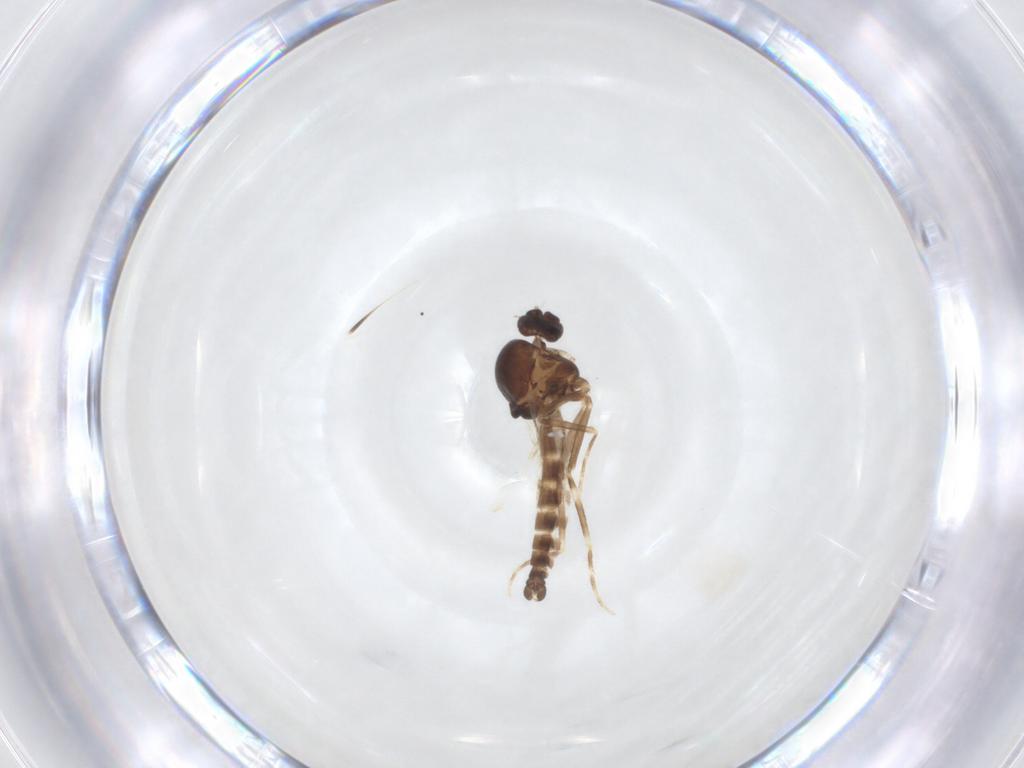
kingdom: Animalia
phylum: Arthropoda
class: Insecta
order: Diptera
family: Ceratopogonidae
